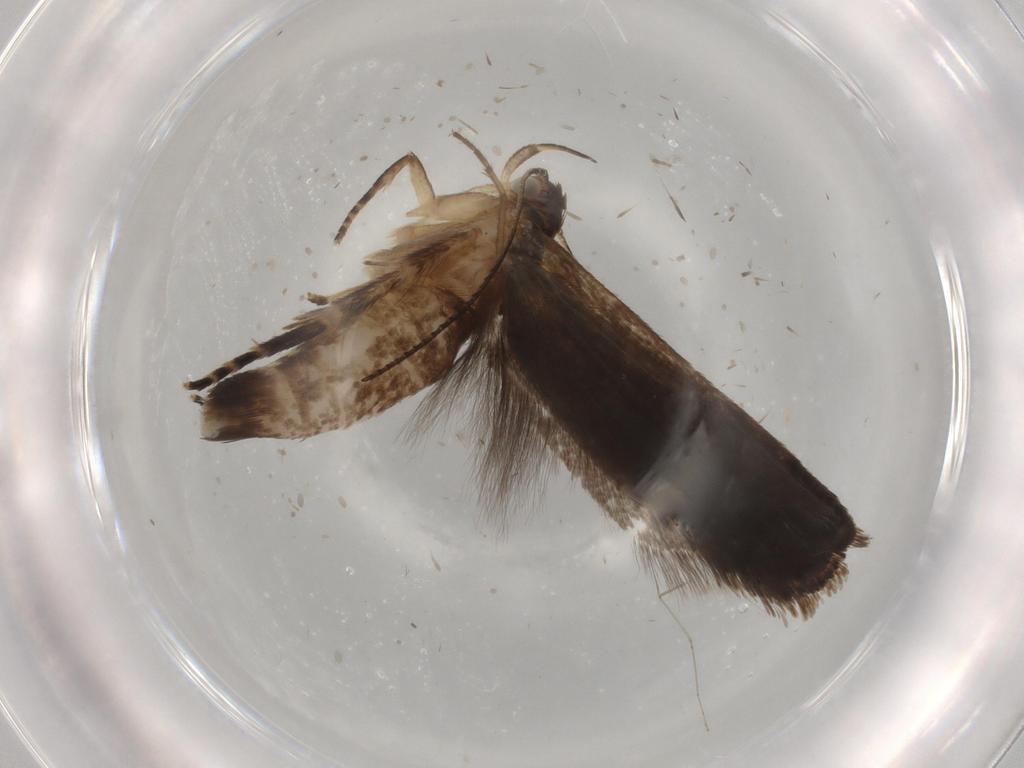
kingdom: Animalia
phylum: Arthropoda
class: Insecta
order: Lepidoptera
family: Gelechiidae
